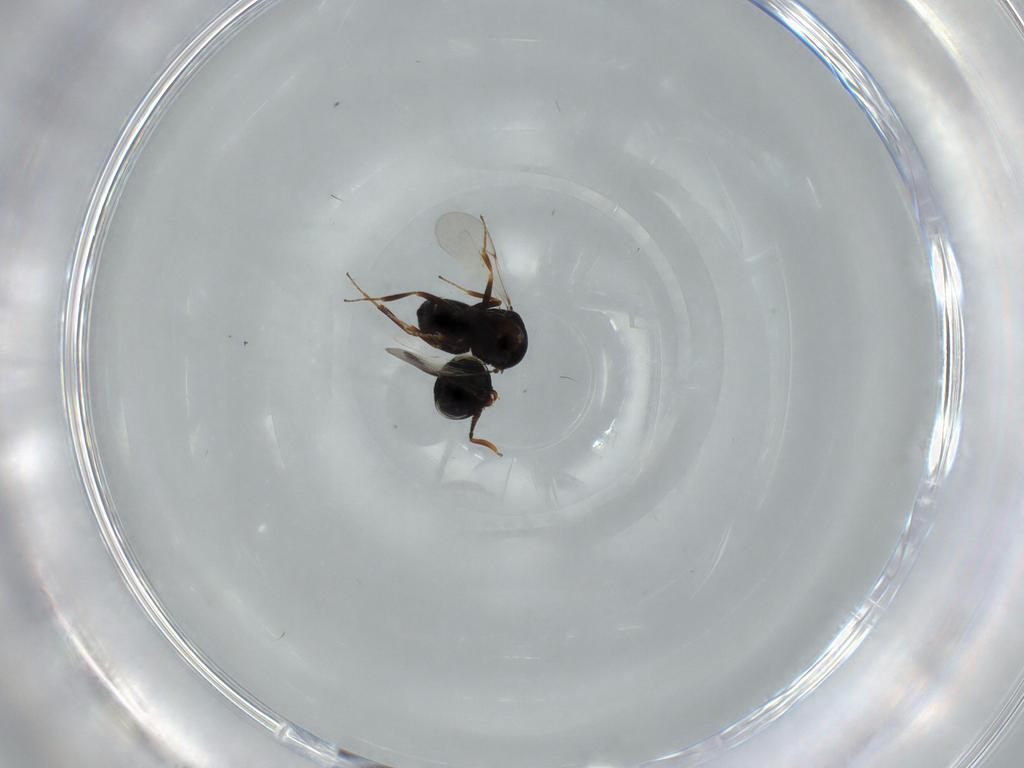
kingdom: Animalia
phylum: Arthropoda
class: Insecta
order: Hymenoptera
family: Scelionidae
